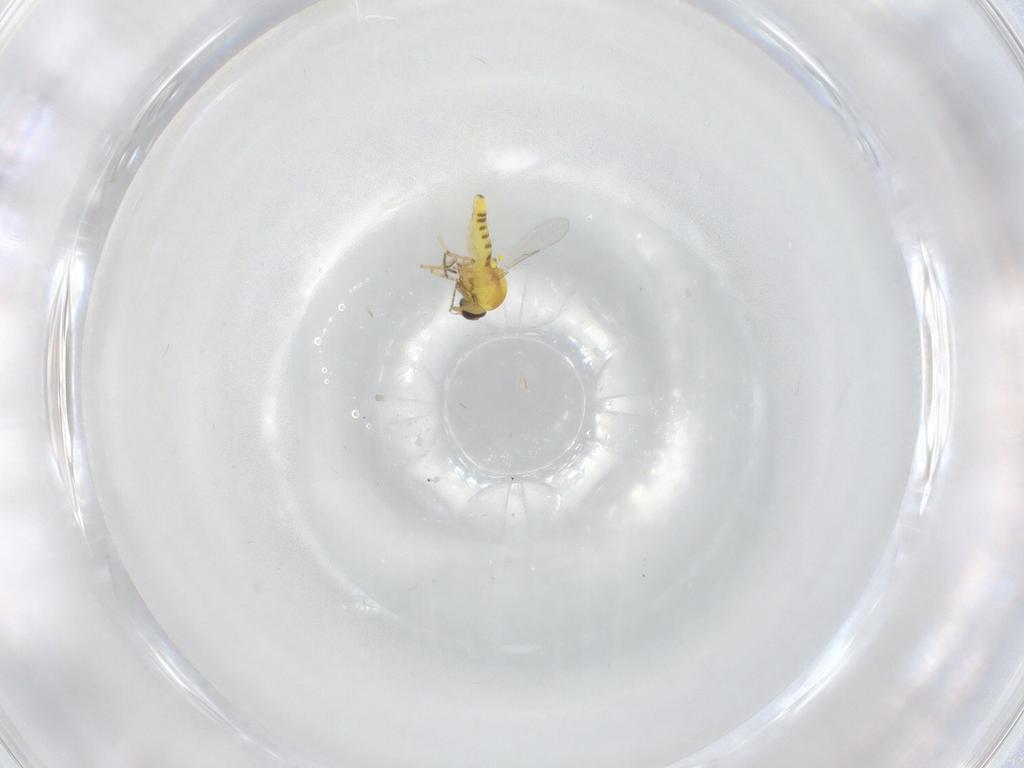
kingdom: Animalia
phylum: Arthropoda
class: Insecta
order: Diptera
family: Ceratopogonidae
